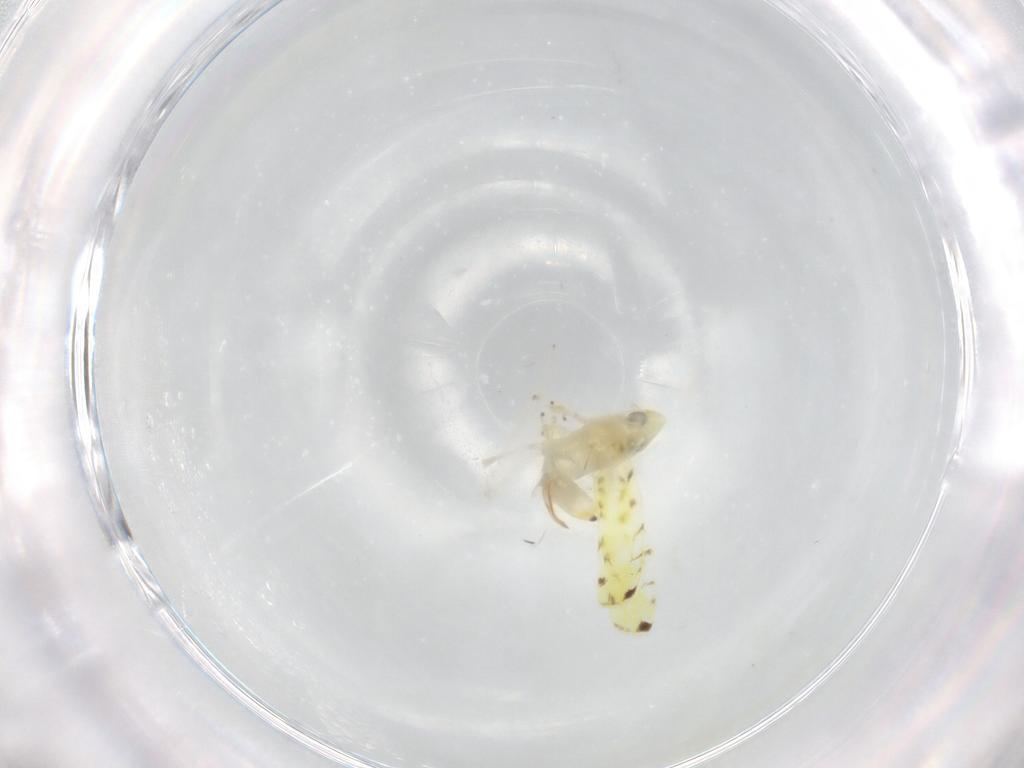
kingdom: Animalia
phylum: Arthropoda
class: Insecta
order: Hemiptera
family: Cicadellidae
